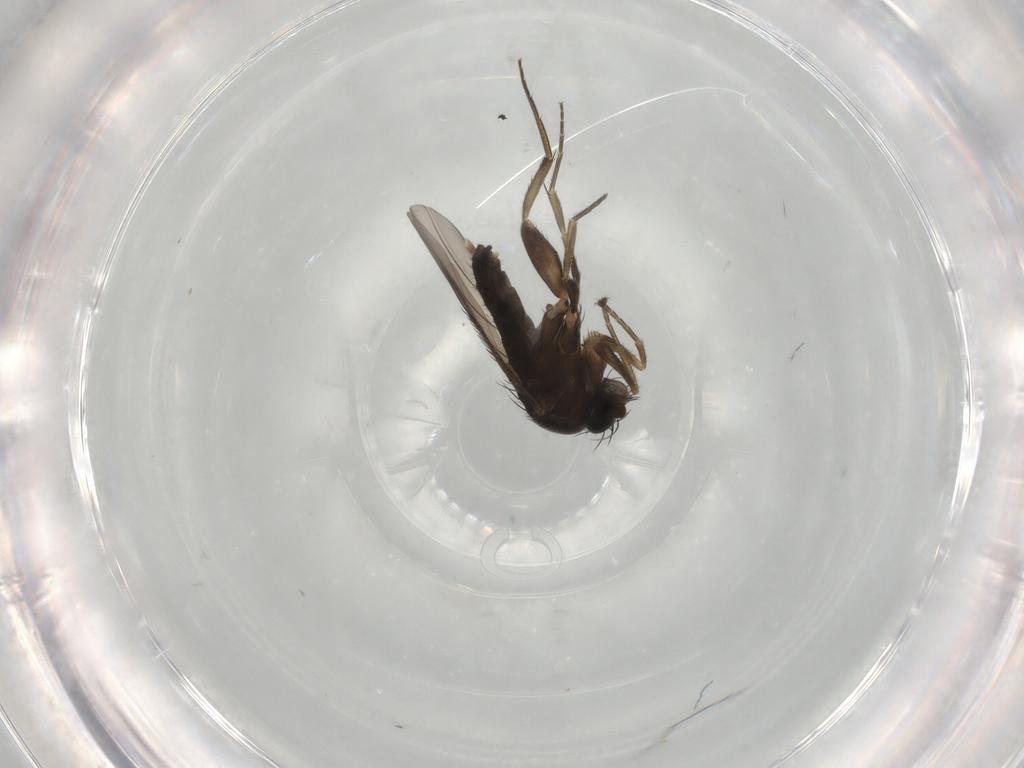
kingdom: Animalia
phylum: Arthropoda
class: Insecta
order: Diptera
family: Phoridae
